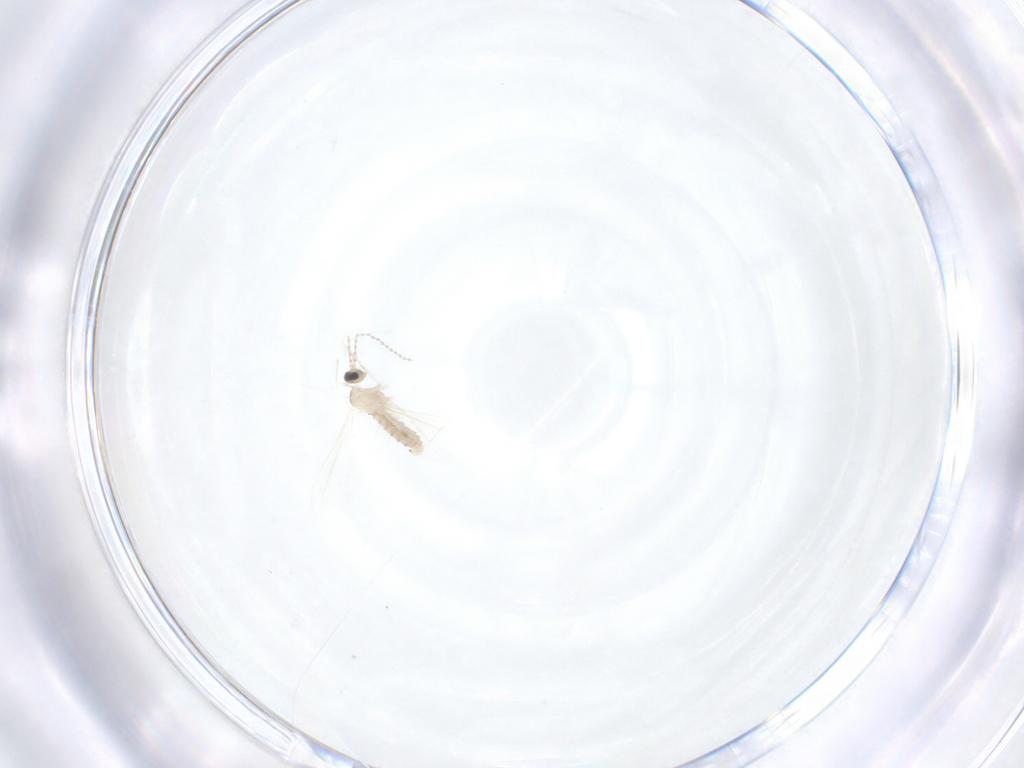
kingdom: Animalia
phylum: Arthropoda
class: Insecta
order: Diptera
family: Cecidomyiidae
